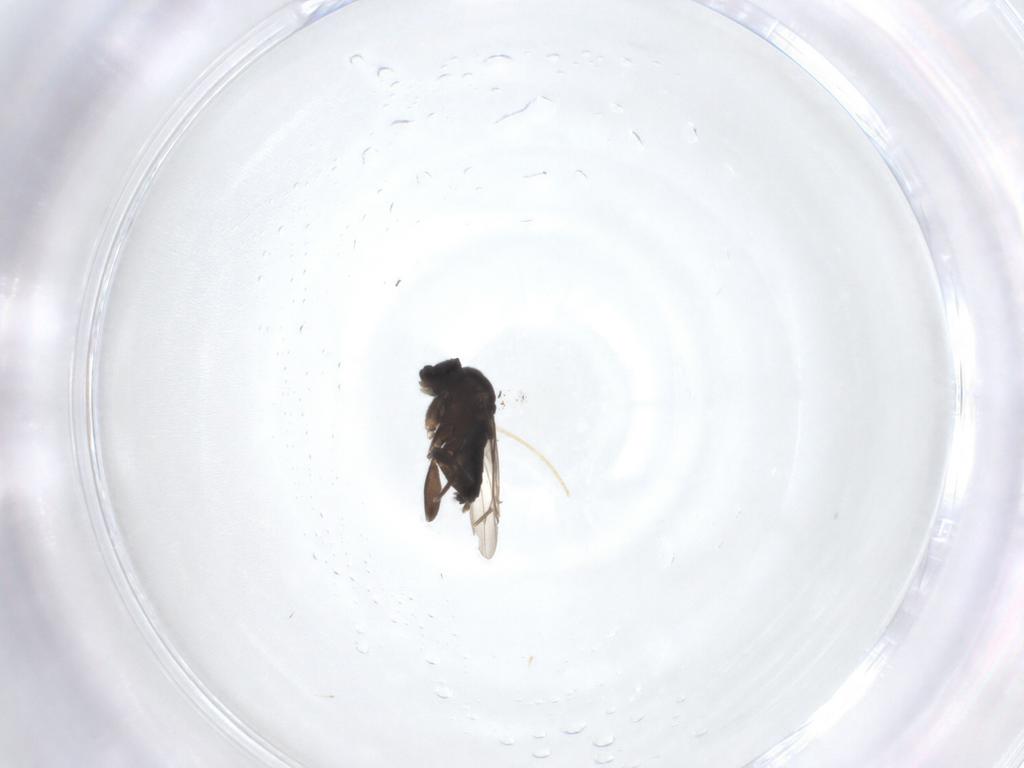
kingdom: Animalia
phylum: Arthropoda
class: Insecta
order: Diptera
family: Phoridae
